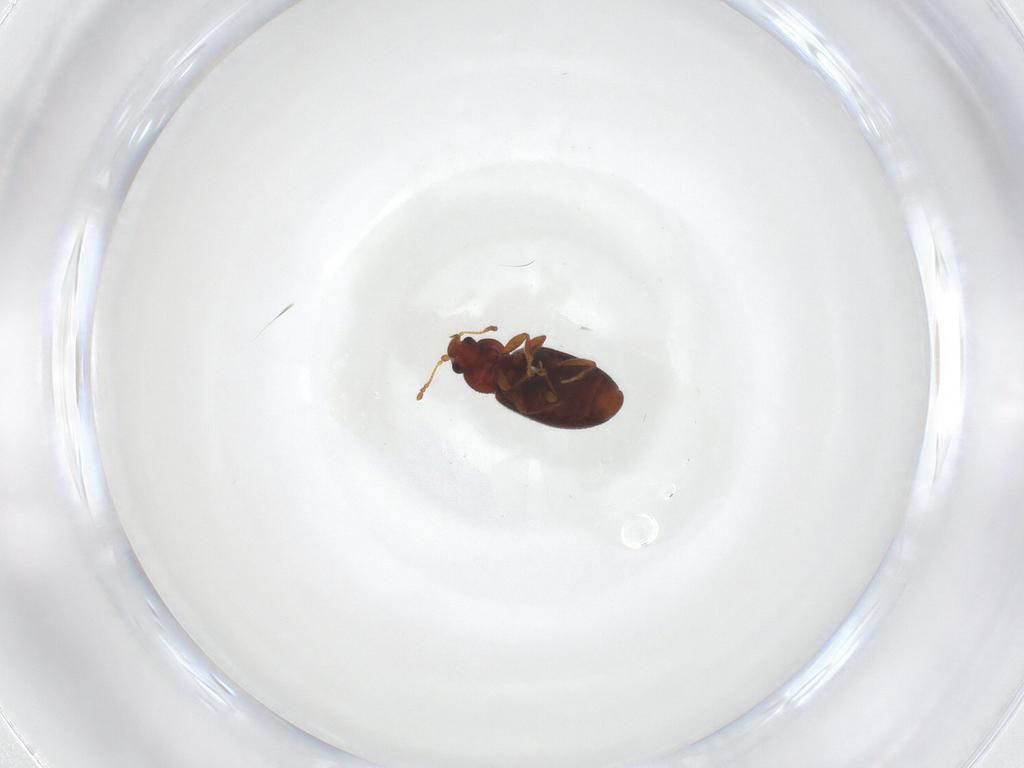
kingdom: Animalia
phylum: Arthropoda
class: Insecta
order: Coleoptera
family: Latridiidae
